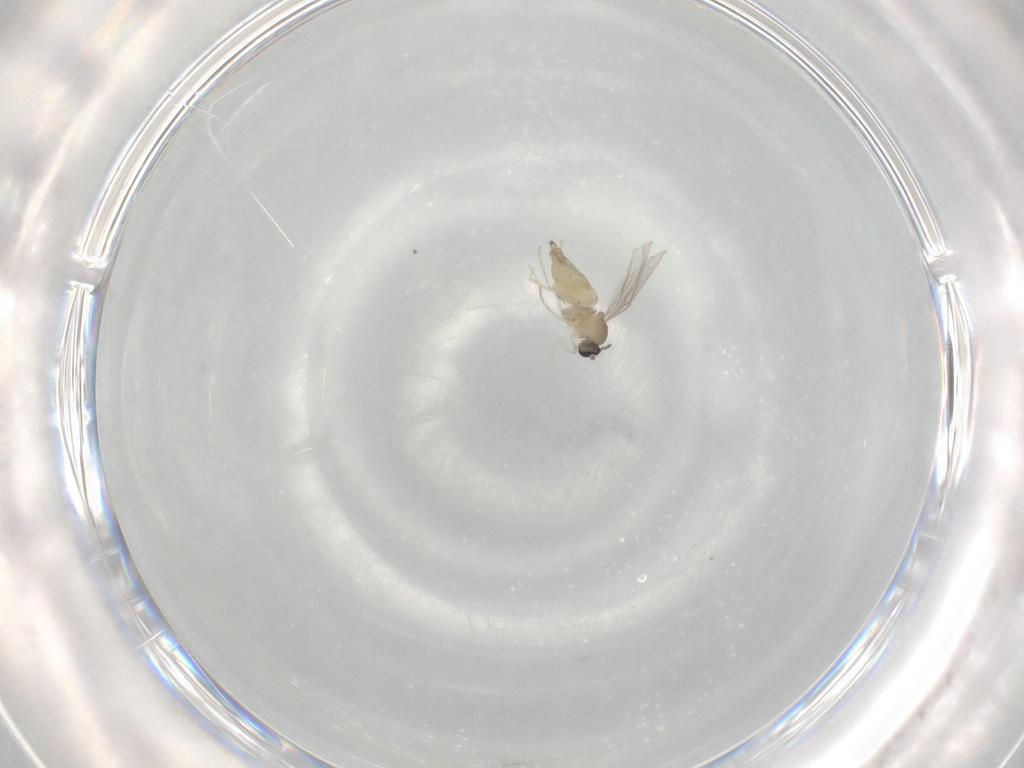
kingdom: Animalia
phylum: Arthropoda
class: Insecta
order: Diptera
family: Cecidomyiidae
